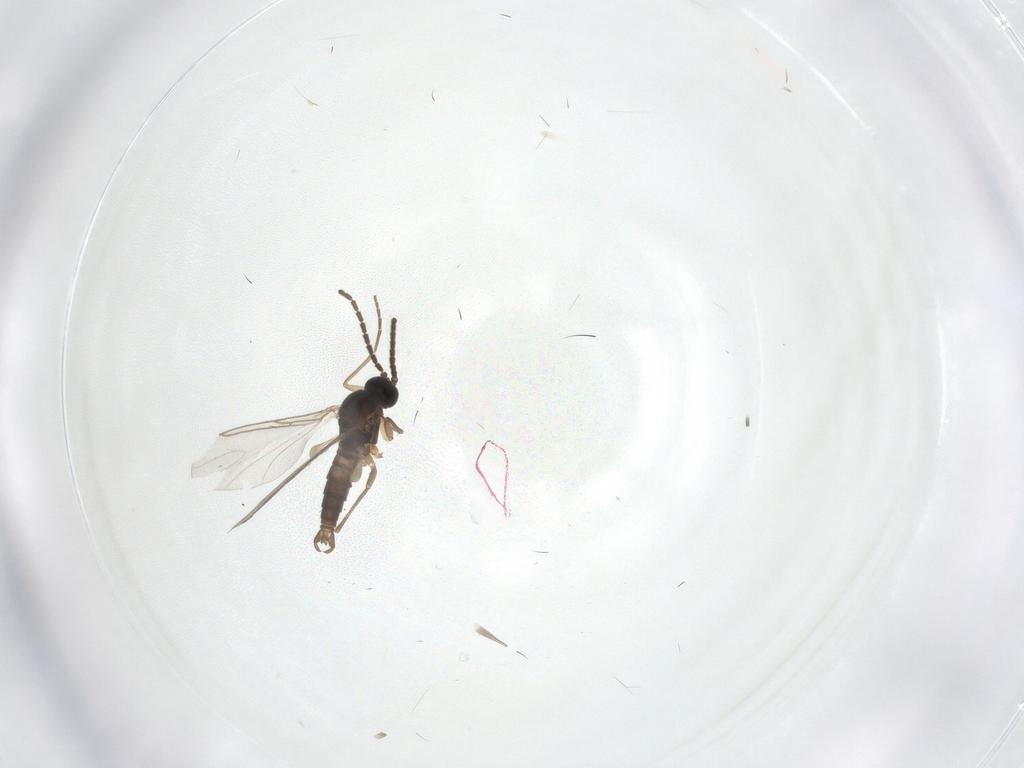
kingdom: Animalia
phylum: Arthropoda
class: Insecta
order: Diptera
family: Sciaridae
